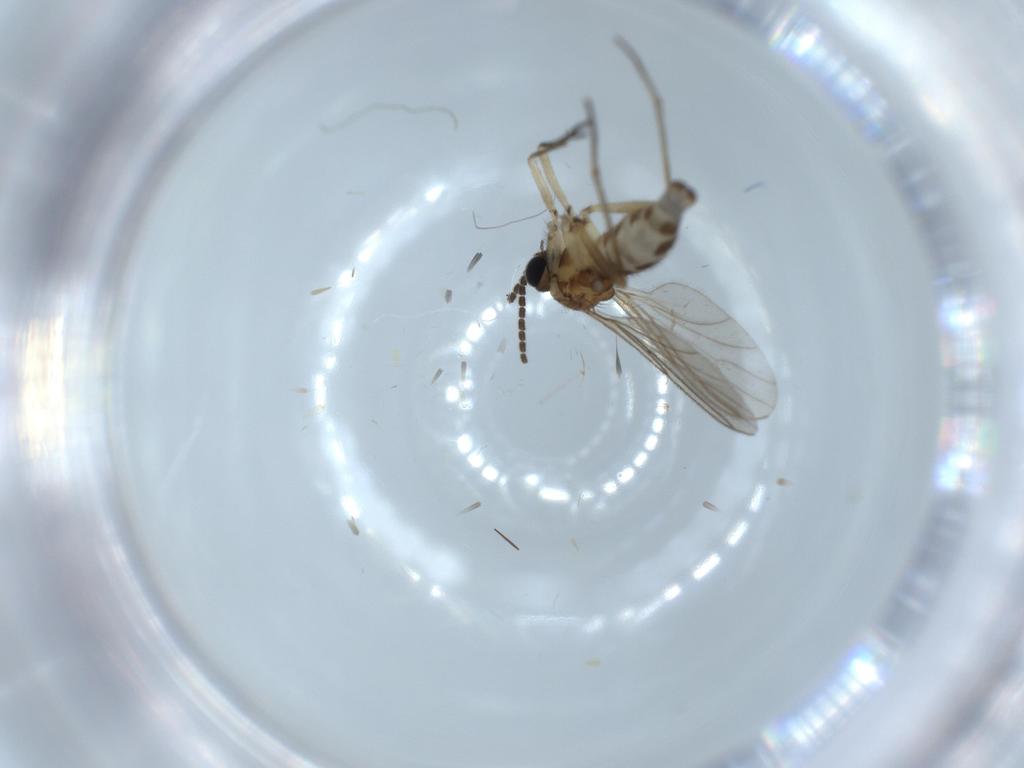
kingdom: Animalia
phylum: Arthropoda
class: Insecta
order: Diptera
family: Sciaridae
